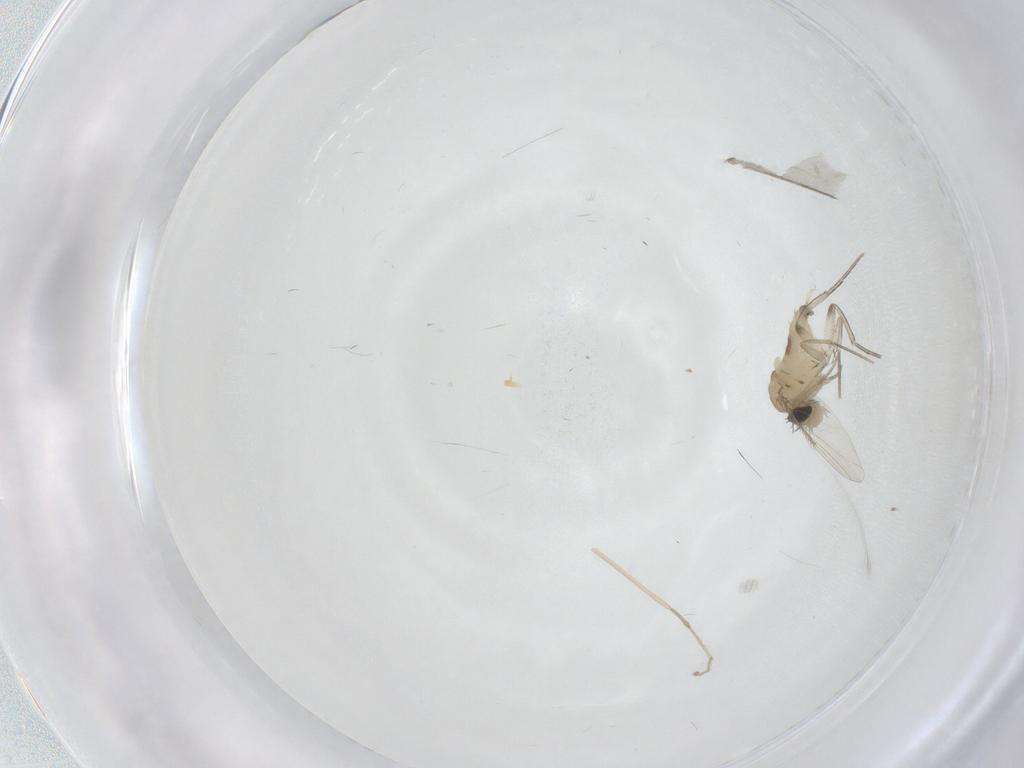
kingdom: Animalia
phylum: Arthropoda
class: Insecta
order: Diptera
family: Phoridae
